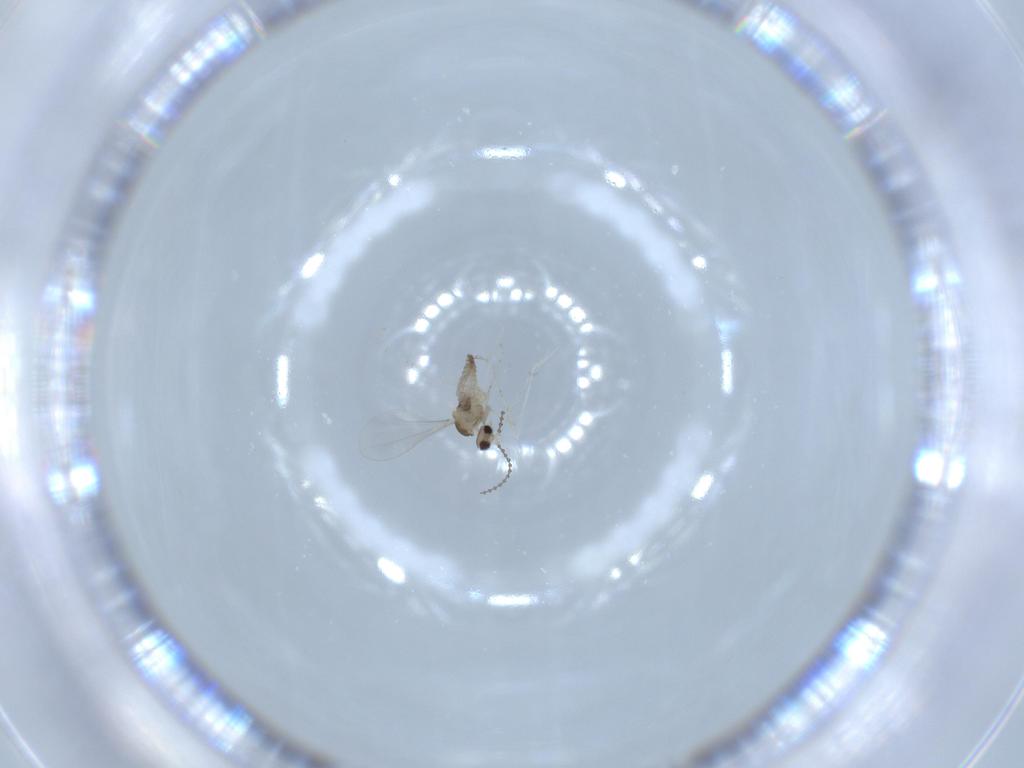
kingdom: Animalia
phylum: Arthropoda
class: Insecta
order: Diptera
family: Cecidomyiidae
